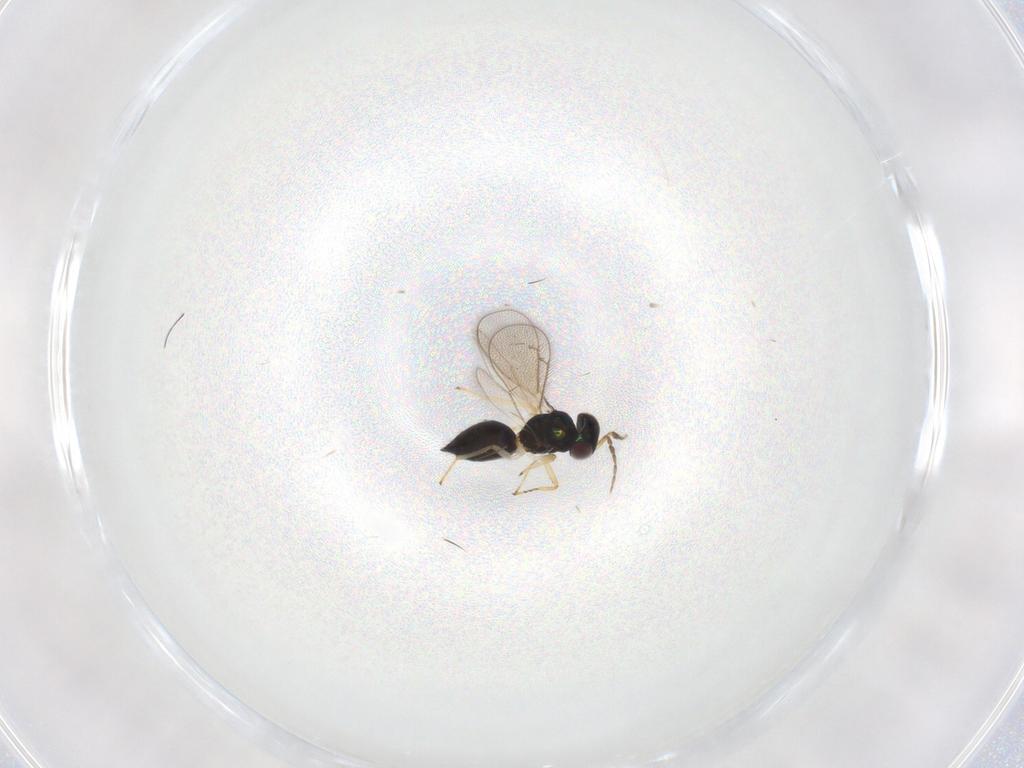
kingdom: Animalia
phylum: Arthropoda
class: Insecta
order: Hymenoptera
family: Eulophidae
